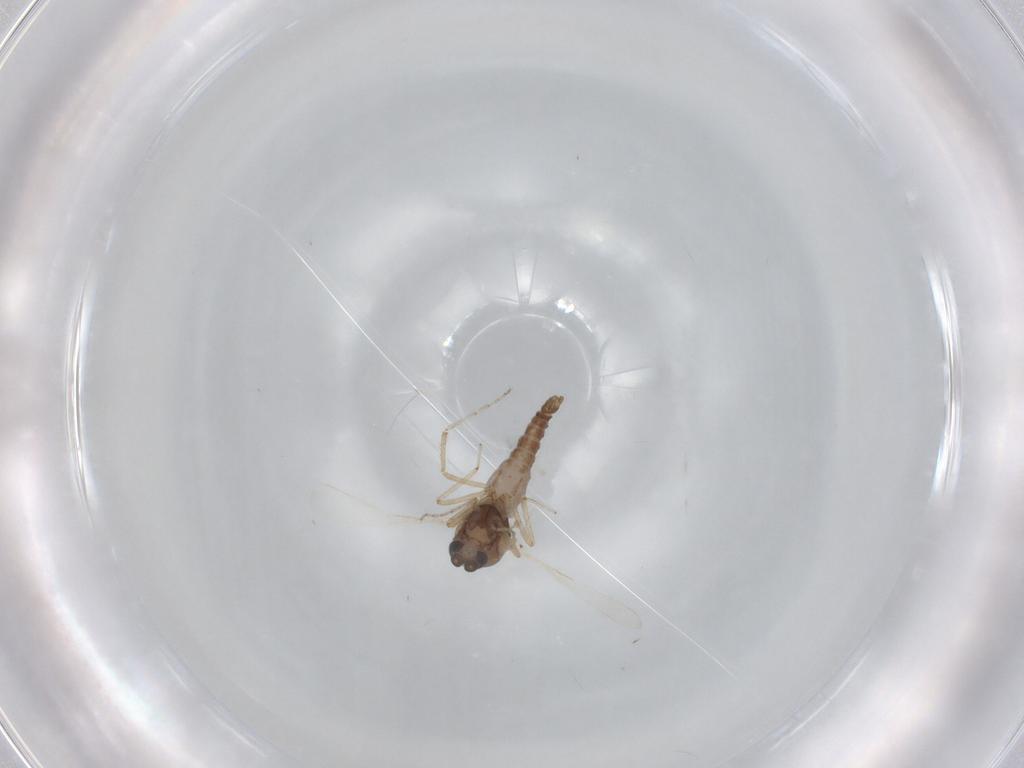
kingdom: Animalia
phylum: Arthropoda
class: Insecta
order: Diptera
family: Ceratopogonidae
